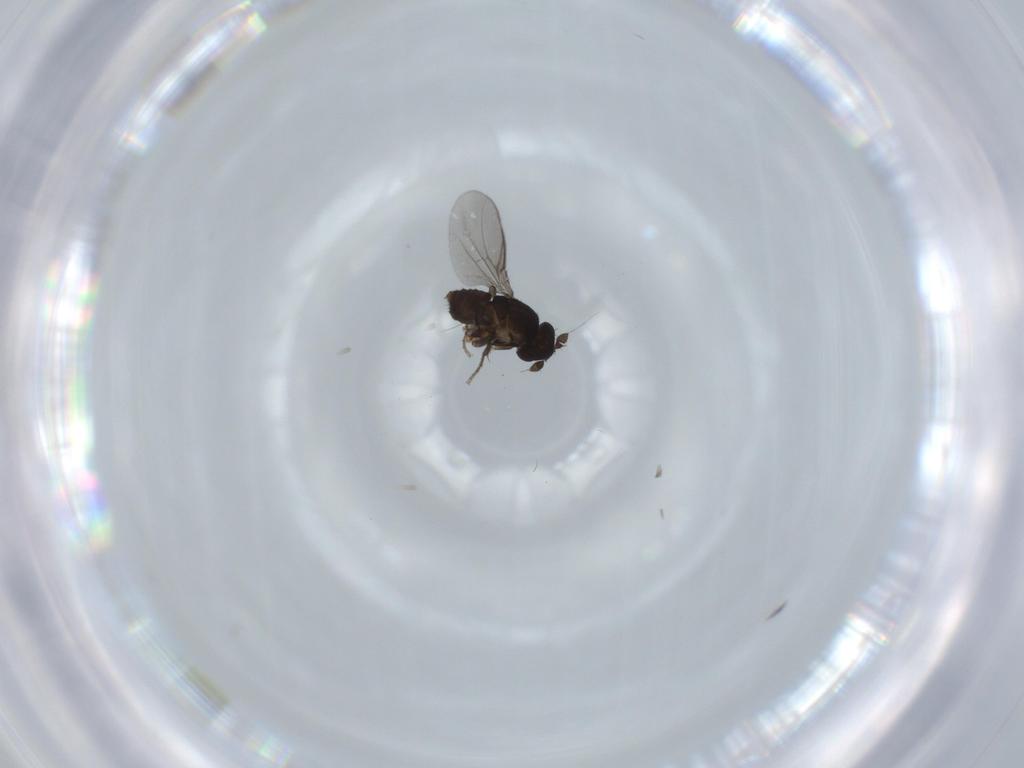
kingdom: Animalia
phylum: Arthropoda
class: Insecta
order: Diptera
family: Sphaeroceridae
